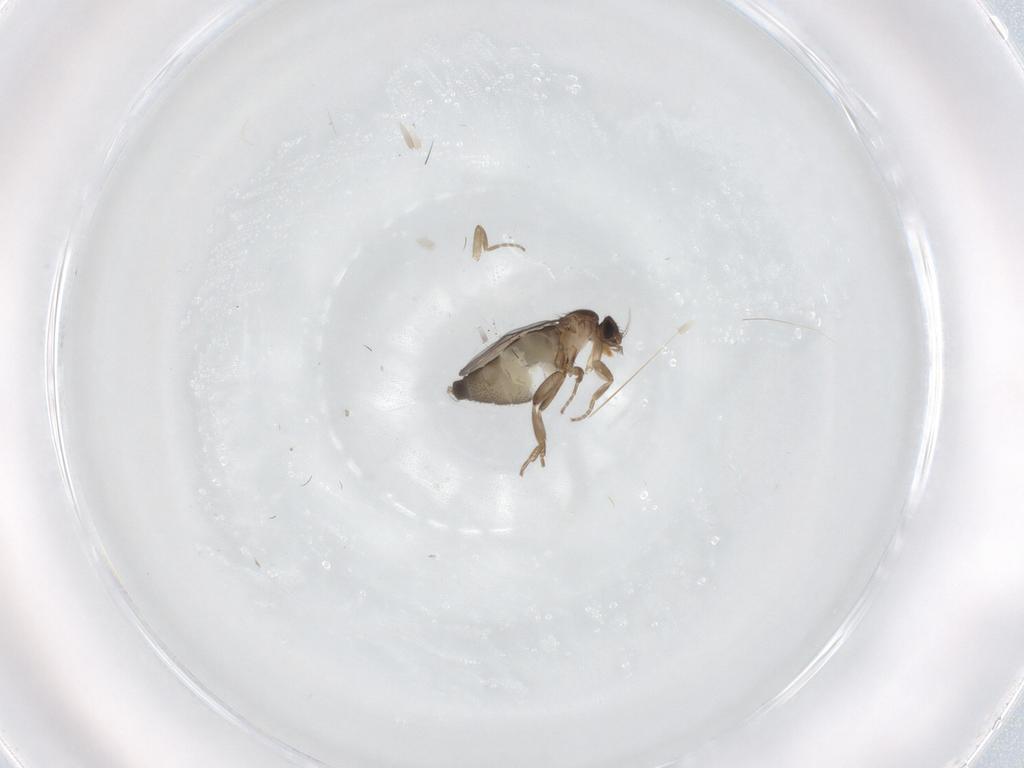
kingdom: Animalia
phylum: Arthropoda
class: Insecta
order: Diptera
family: Phoridae
